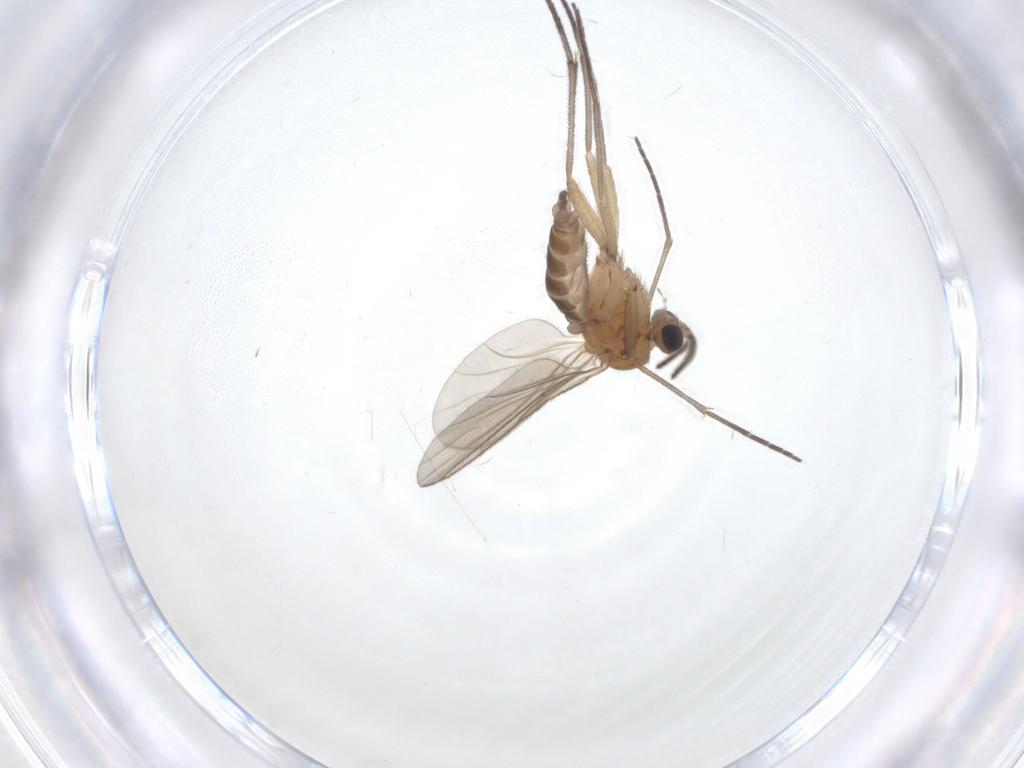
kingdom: Animalia
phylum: Arthropoda
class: Insecta
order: Diptera
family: Sciaridae
